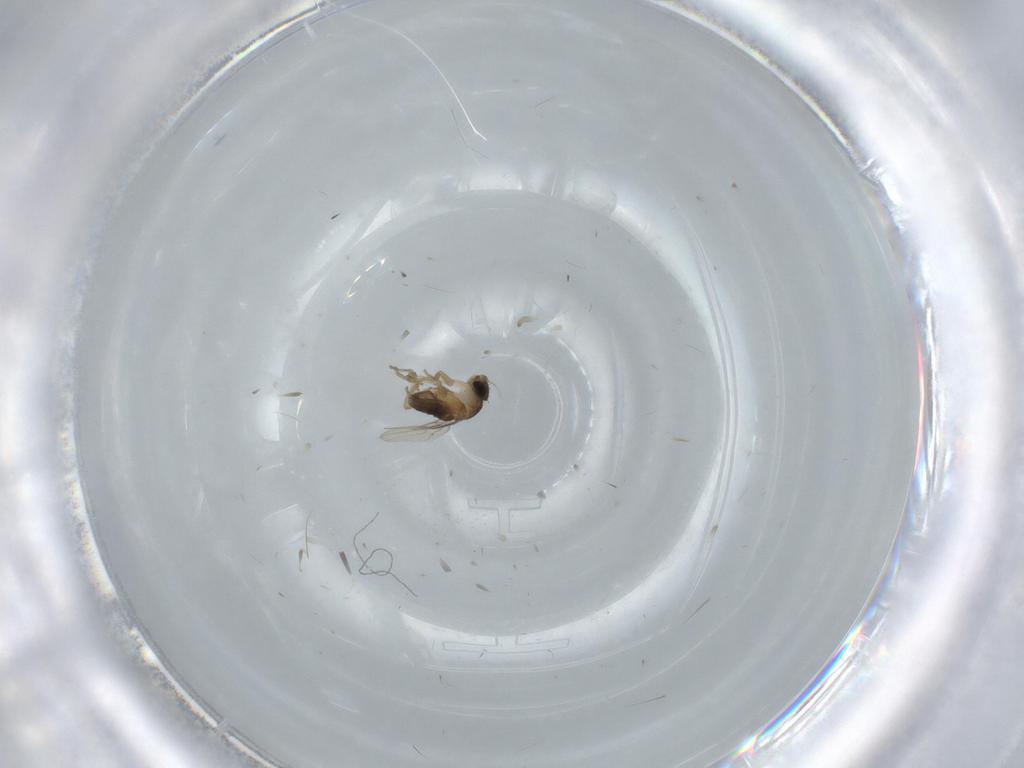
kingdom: Animalia
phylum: Arthropoda
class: Insecta
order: Diptera
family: Phoridae
